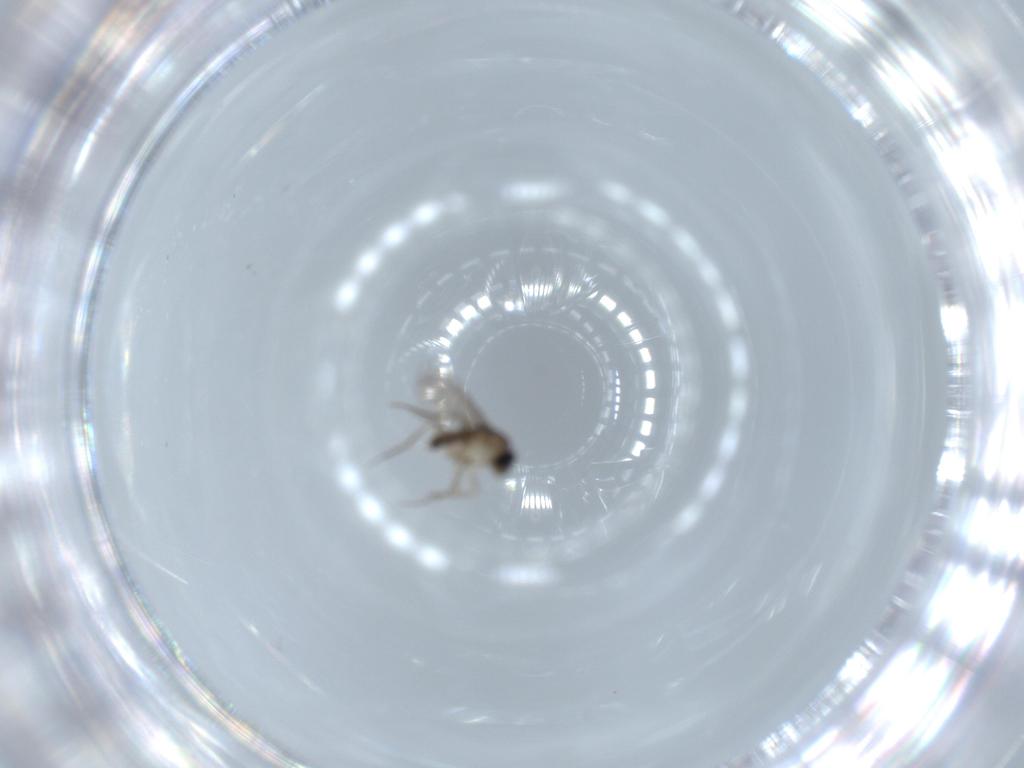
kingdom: Animalia
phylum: Arthropoda
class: Insecta
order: Diptera
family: Phoridae
